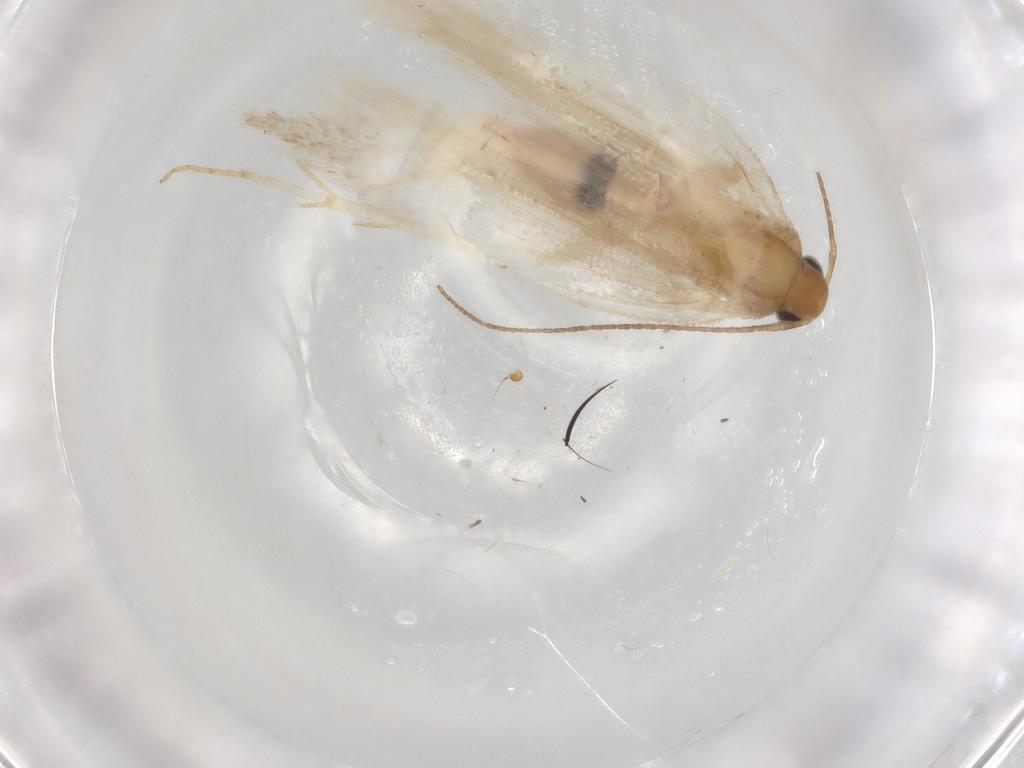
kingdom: Animalia
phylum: Arthropoda
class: Insecta
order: Lepidoptera
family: Gelechiidae
